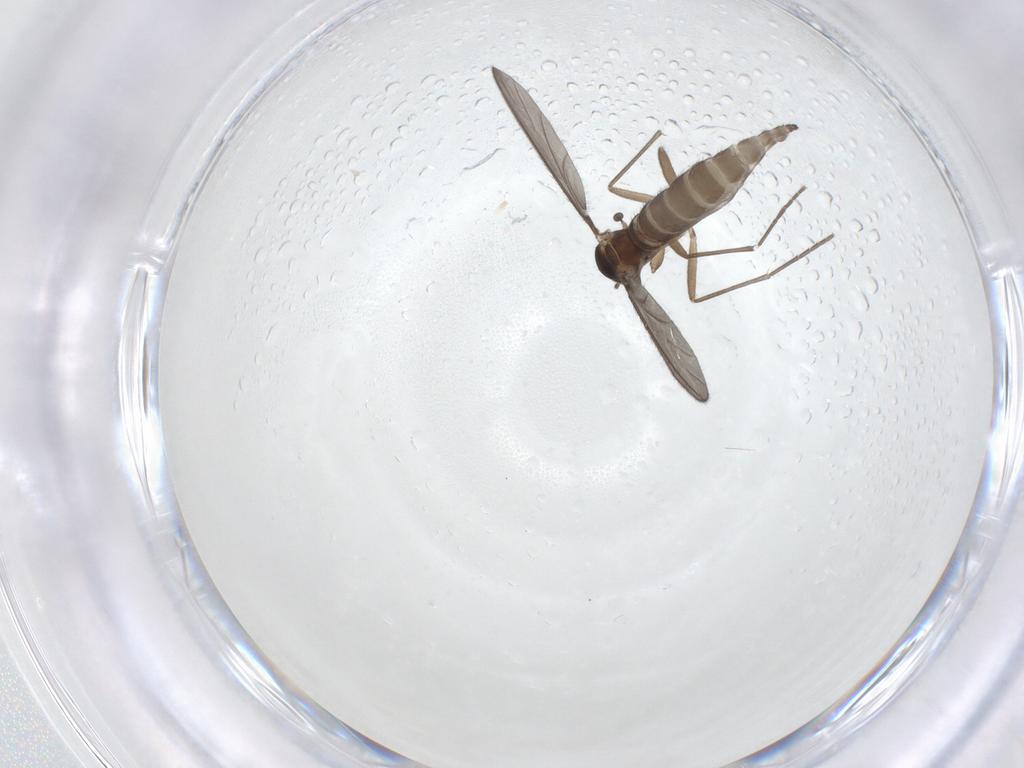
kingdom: Animalia
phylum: Arthropoda
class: Insecta
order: Diptera
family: Sciaridae
